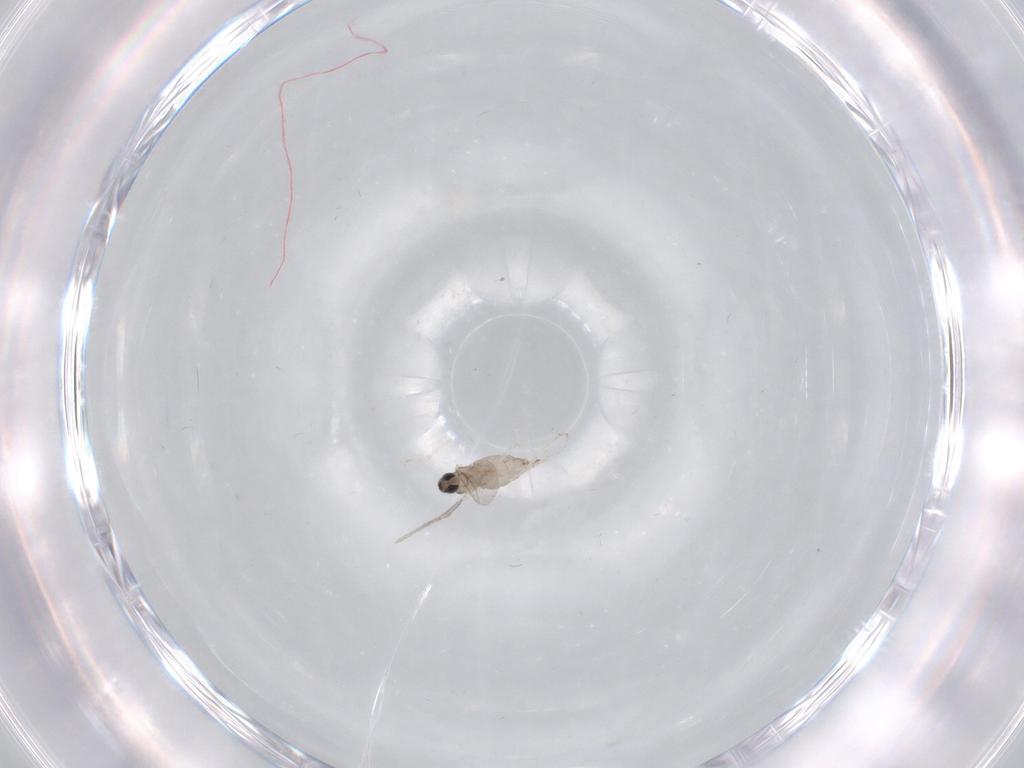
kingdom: Animalia
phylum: Arthropoda
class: Insecta
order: Diptera
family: Cecidomyiidae
